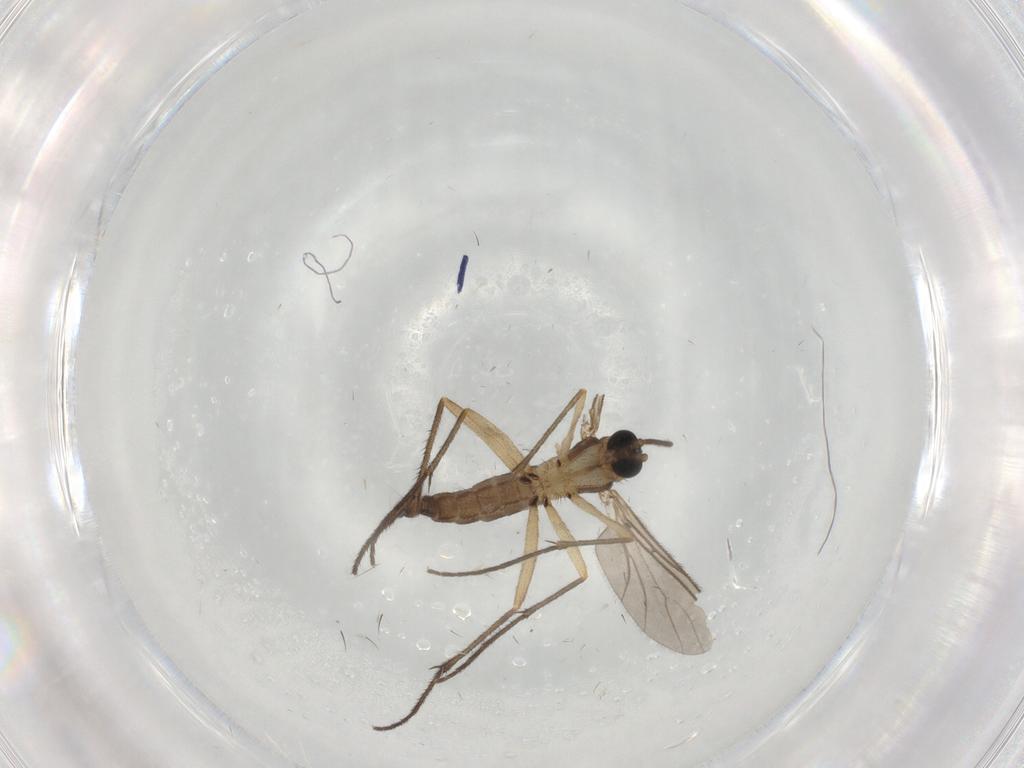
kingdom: Animalia
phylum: Arthropoda
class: Insecta
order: Diptera
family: Sciaridae
